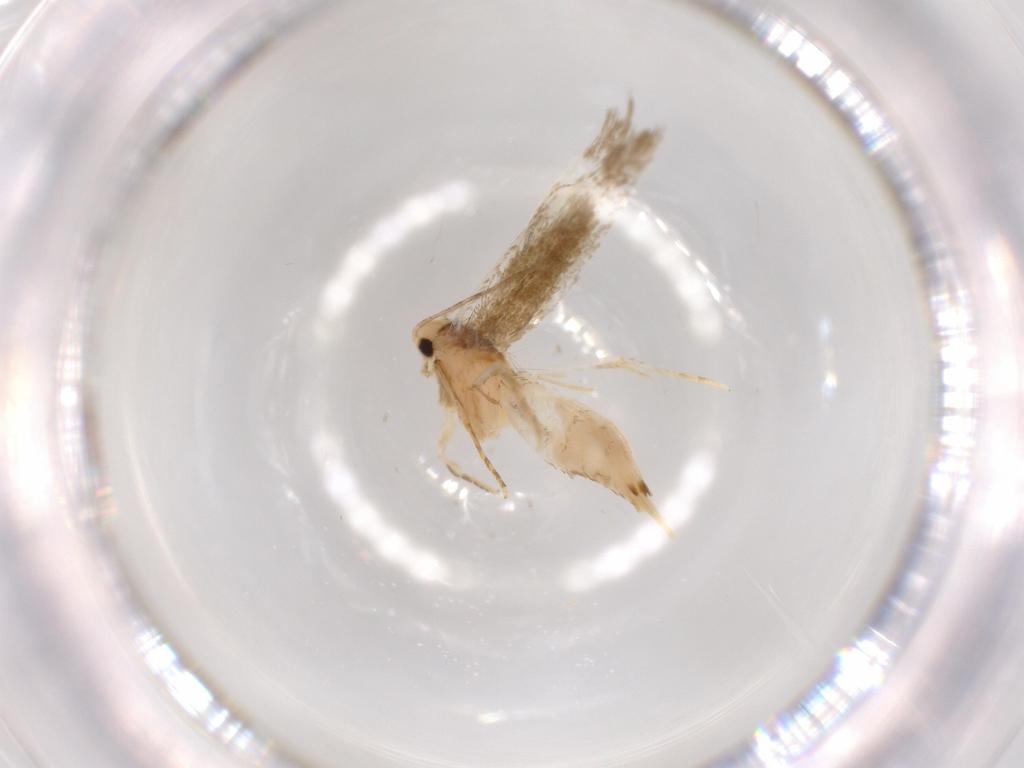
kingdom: Animalia
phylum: Arthropoda
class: Insecta
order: Lepidoptera
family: Tineidae
